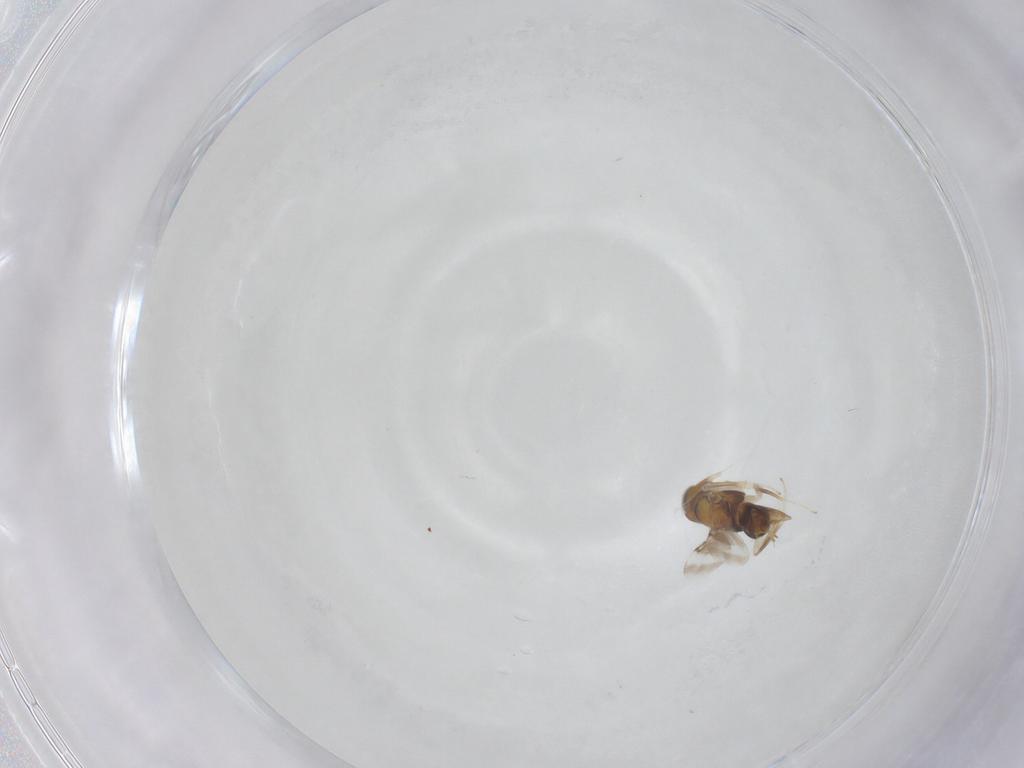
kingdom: Animalia
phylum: Arthropoda
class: Insecta
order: Hymenoptera
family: Encyrtidae
